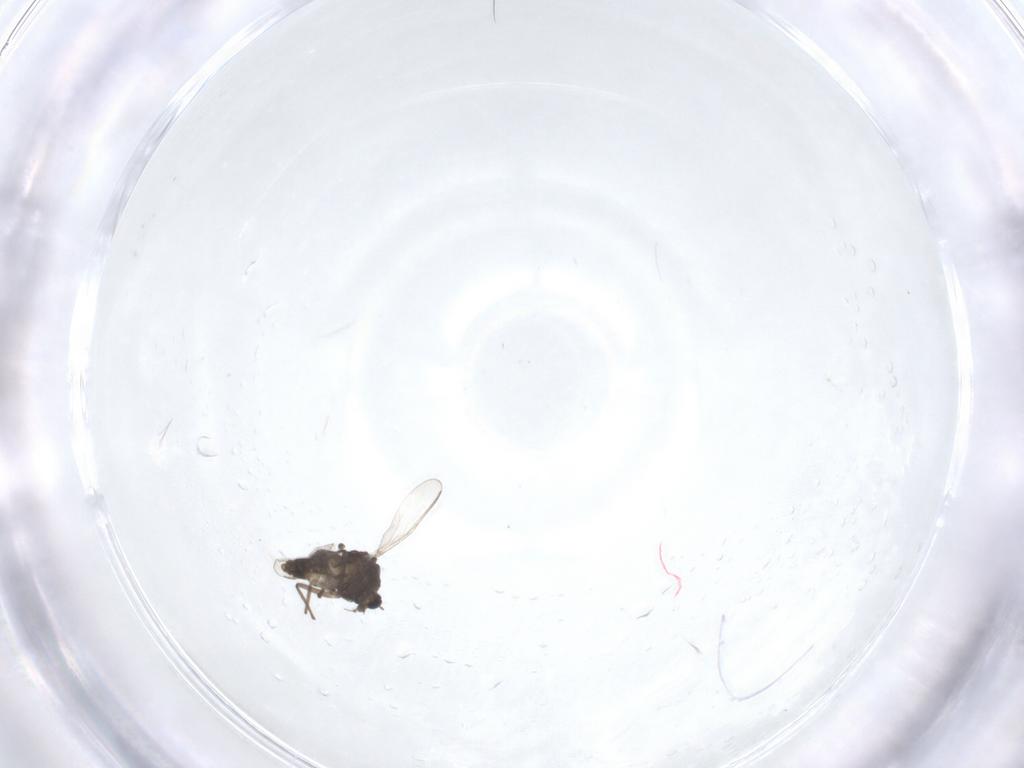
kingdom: Animalia
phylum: Arthropoda
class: Insecta
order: Diptera
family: Chironomidae
